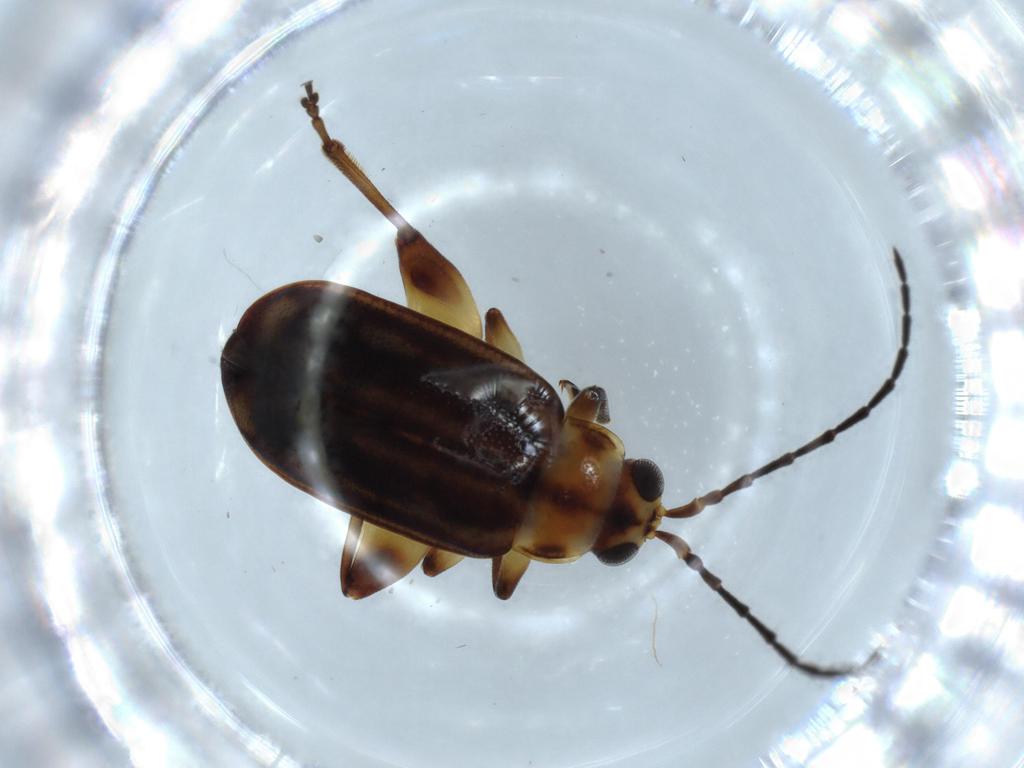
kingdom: Animalia
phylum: Arthropoda
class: Insecta
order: Coleoptera
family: Chrysomelidae
